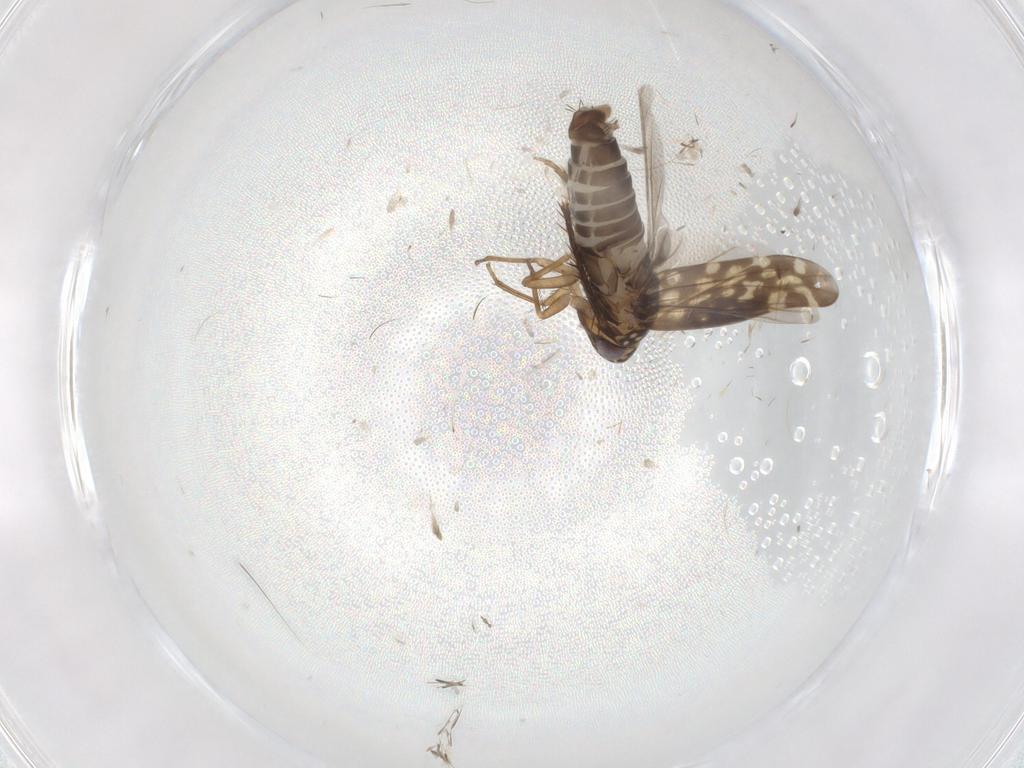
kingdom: Animalia
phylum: Arthropoda
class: Insecta
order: Hemiptera
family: Cicadellidae
